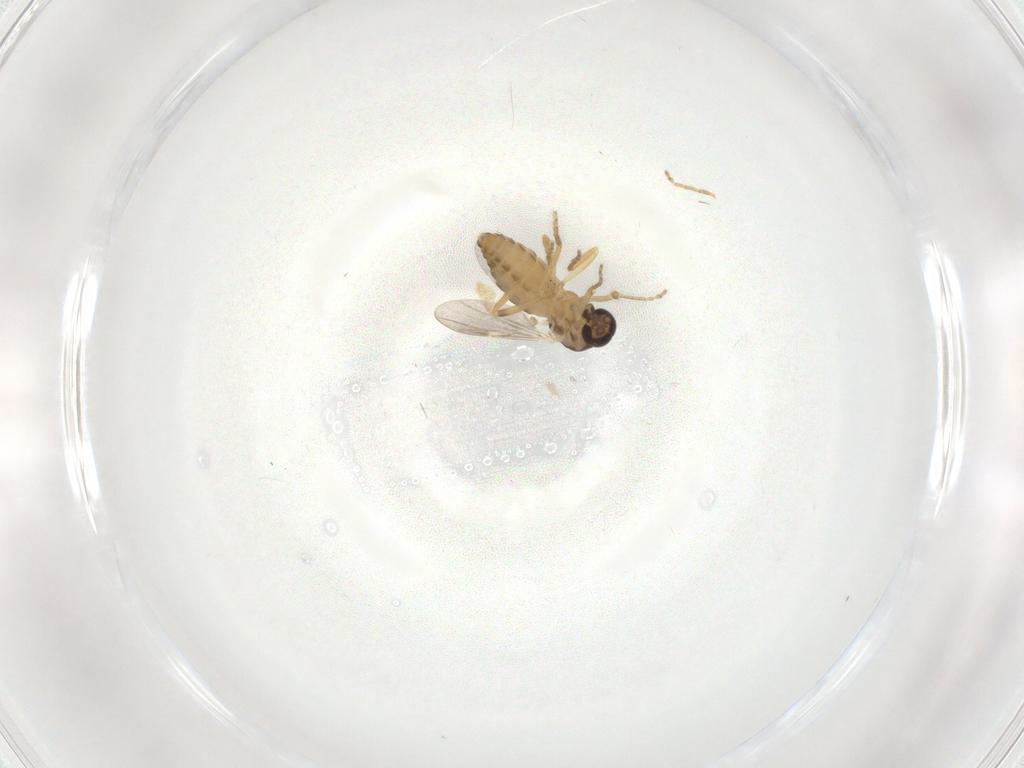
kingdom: Animalia
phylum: Arthropoda
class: Insecta
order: Diptera
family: Ceratopogonidae
